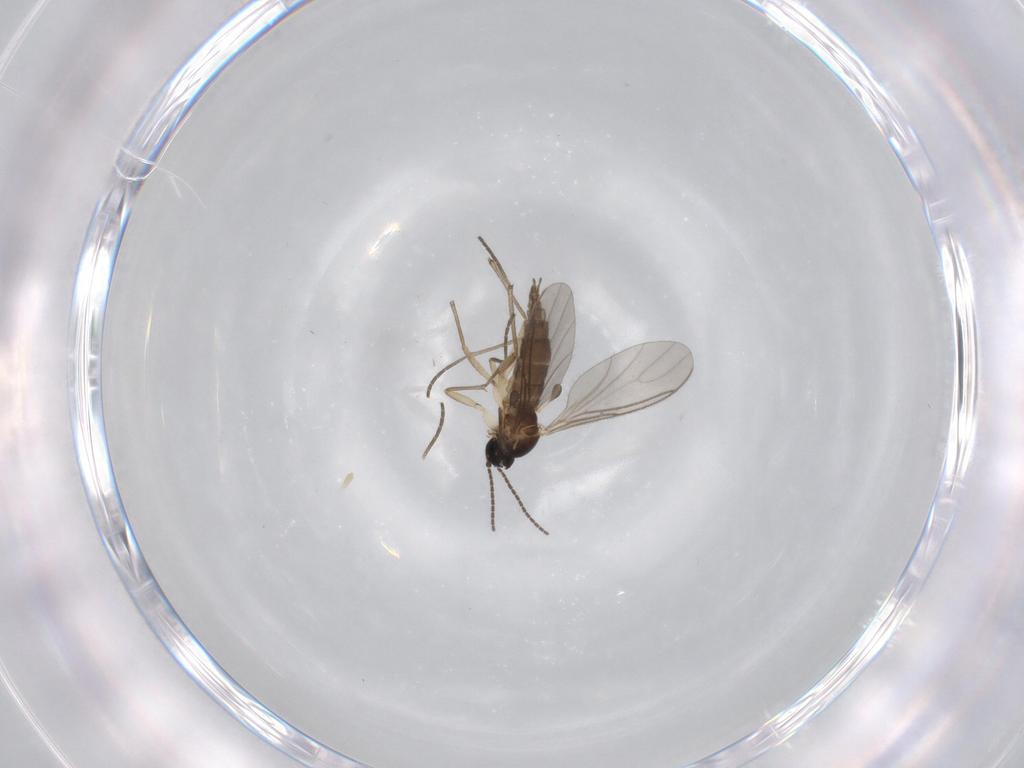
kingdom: Animalia
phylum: Arthropoda
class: Insecta
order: Diptera
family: Sciaridae
